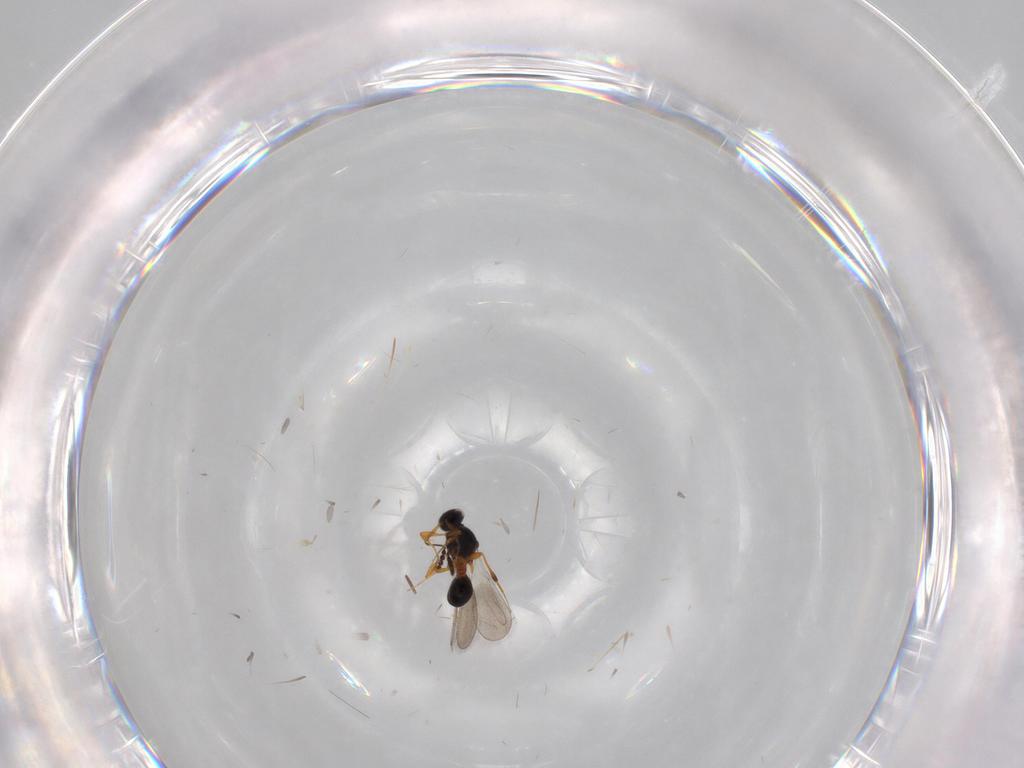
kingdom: Animalia
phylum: Arthropoda
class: Insecta
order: Hymenoptera
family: Platygastridae
